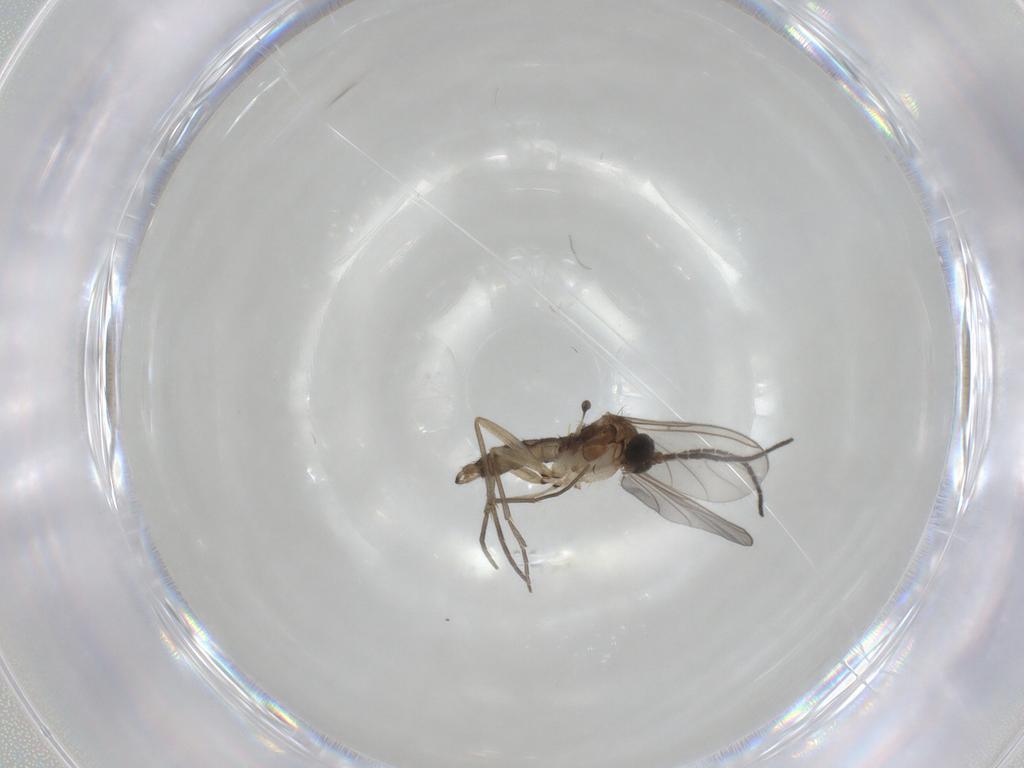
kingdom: Animalia
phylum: Arthropoda
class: Insecta
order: Diptera
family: Sciaridae
